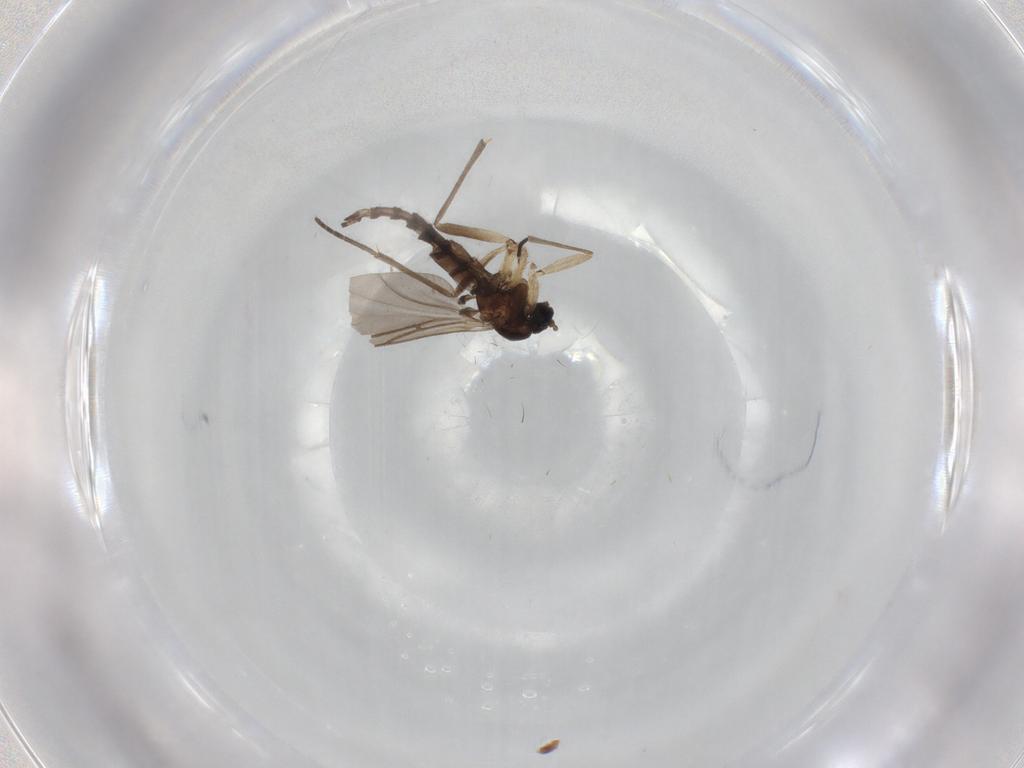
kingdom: Animalia
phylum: Arthropoda
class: Insecta
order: Diptera
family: Sciaridae
